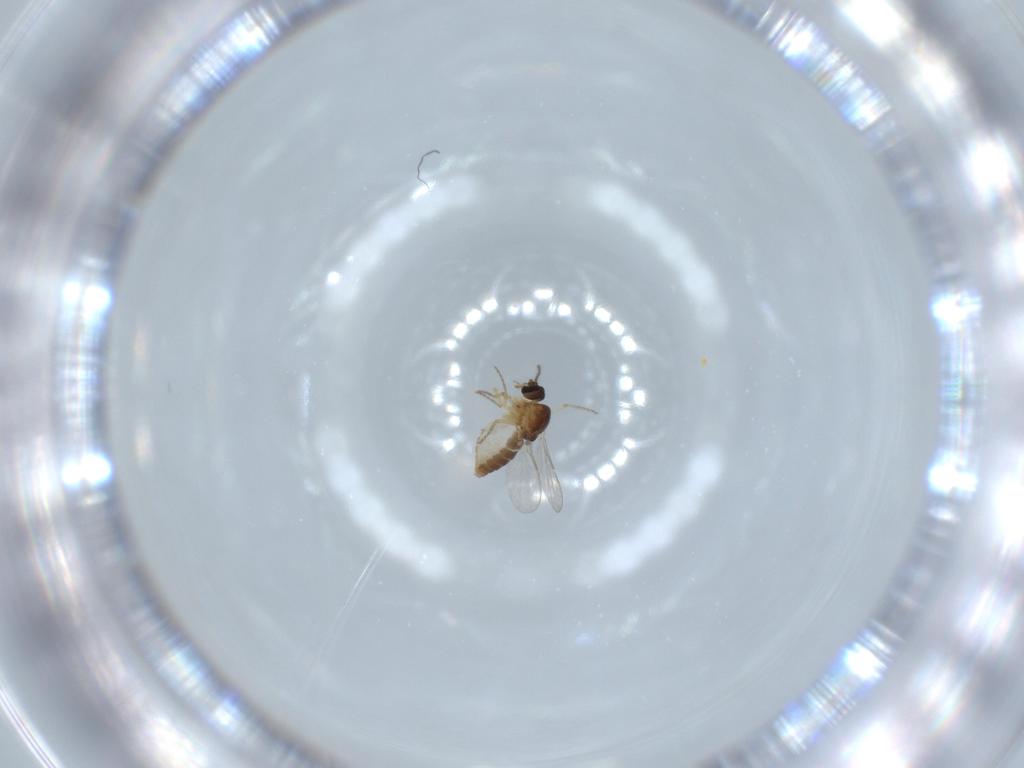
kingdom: Animalia
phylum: Arthropoda
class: Insecta
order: Diptera
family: Ceratopogonidae
